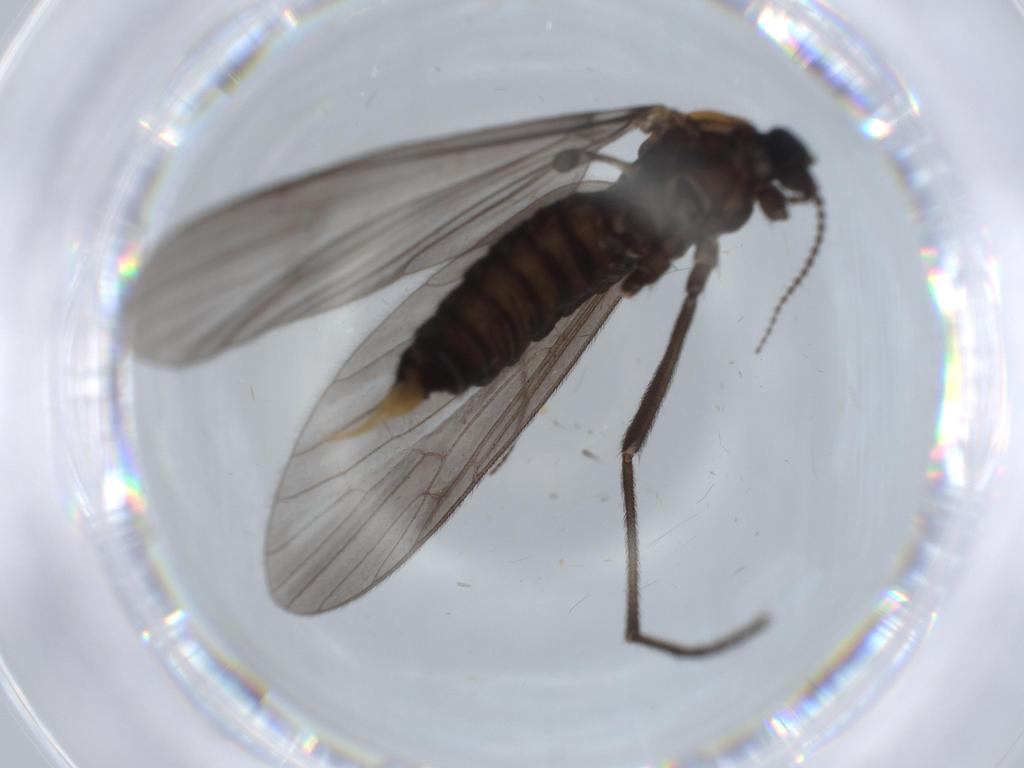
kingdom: Animalia
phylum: Arthropoda
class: Insecta
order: Diptera
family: Limoniidae
